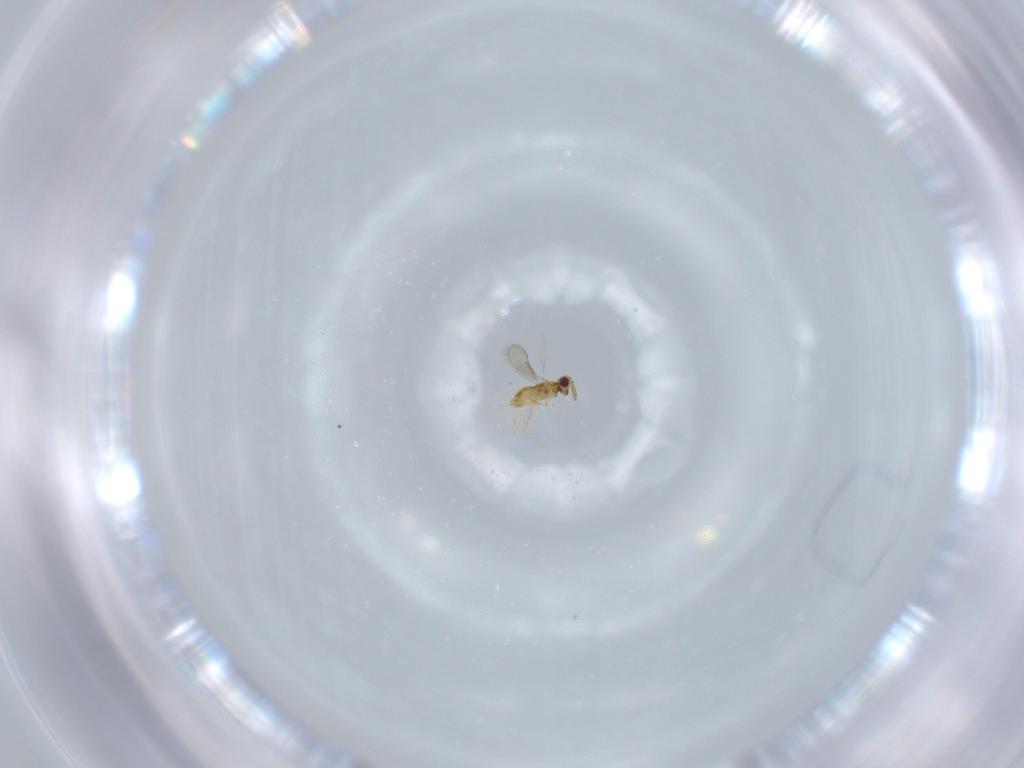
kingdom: Animalia
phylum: Arthropoda
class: Insecta
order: Hymenoptera
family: Aphelinidae
